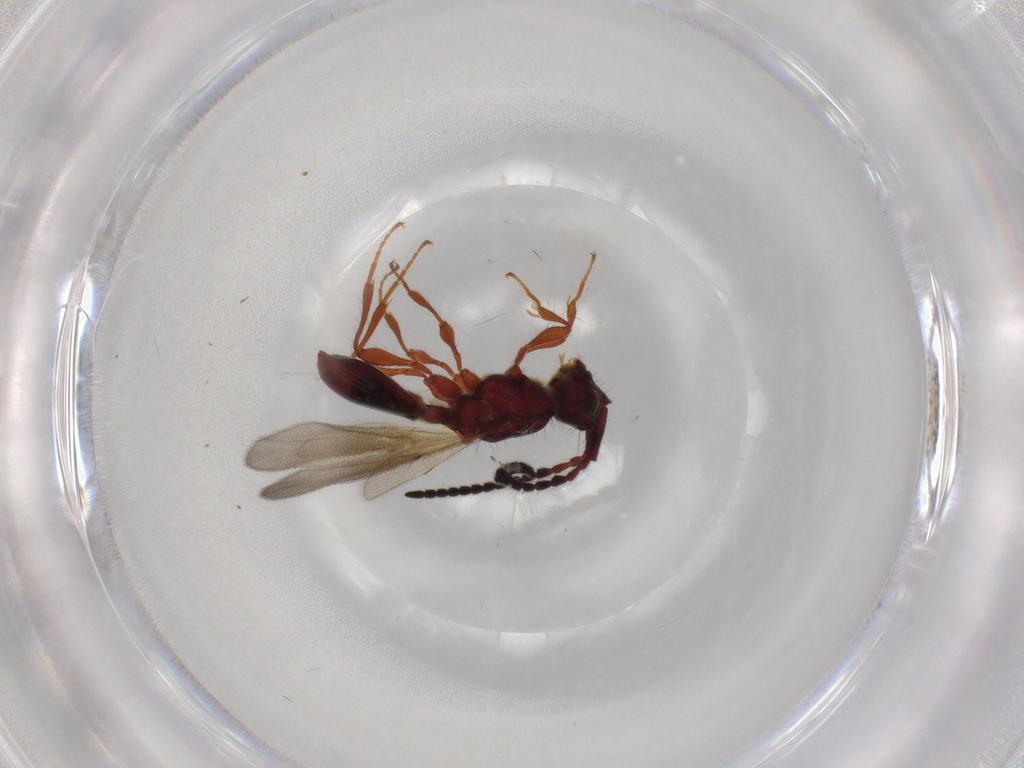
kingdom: Animalia
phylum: Arthropoda
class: Insecta
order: Hymenoptera
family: Diapriidae
